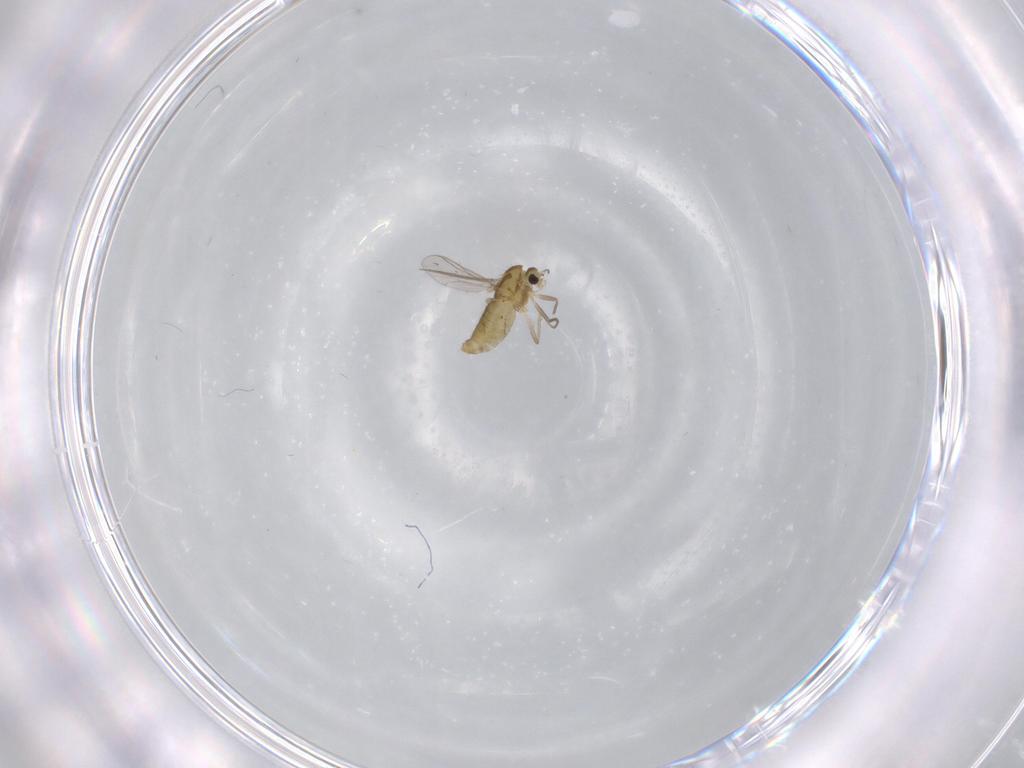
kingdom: Animalia
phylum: Arthropoda
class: Insecta
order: Diptera
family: Chironomidae
